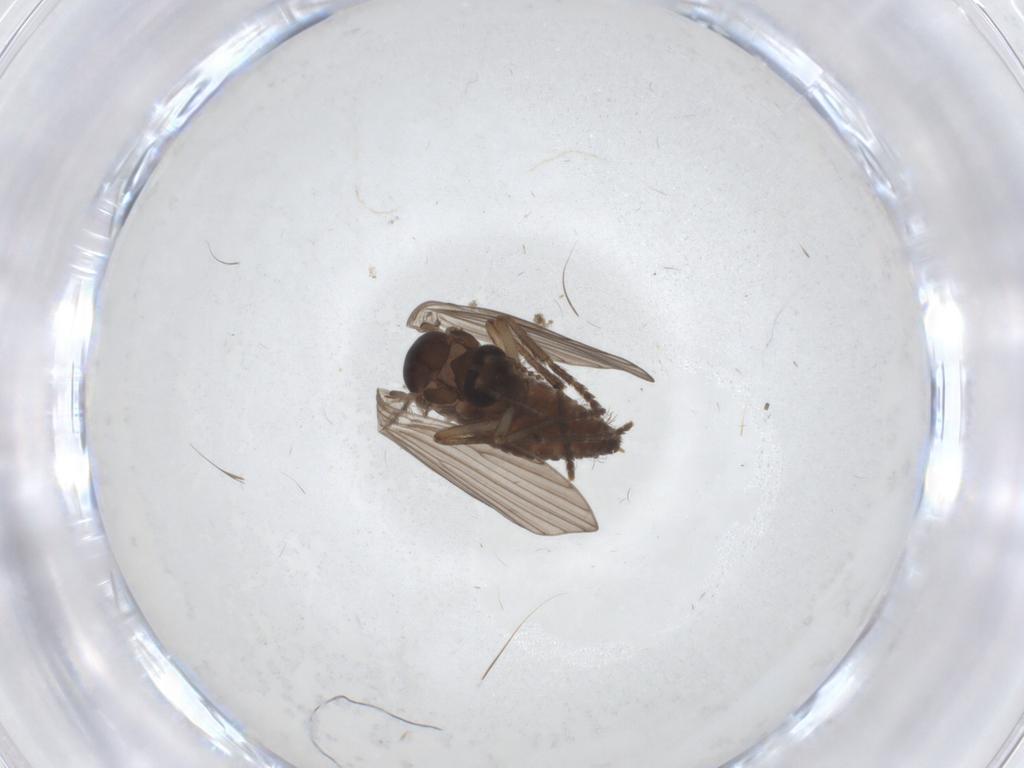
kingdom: Animalia
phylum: Arthropoda
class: Insecta
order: Diptera
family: Psychodidae
